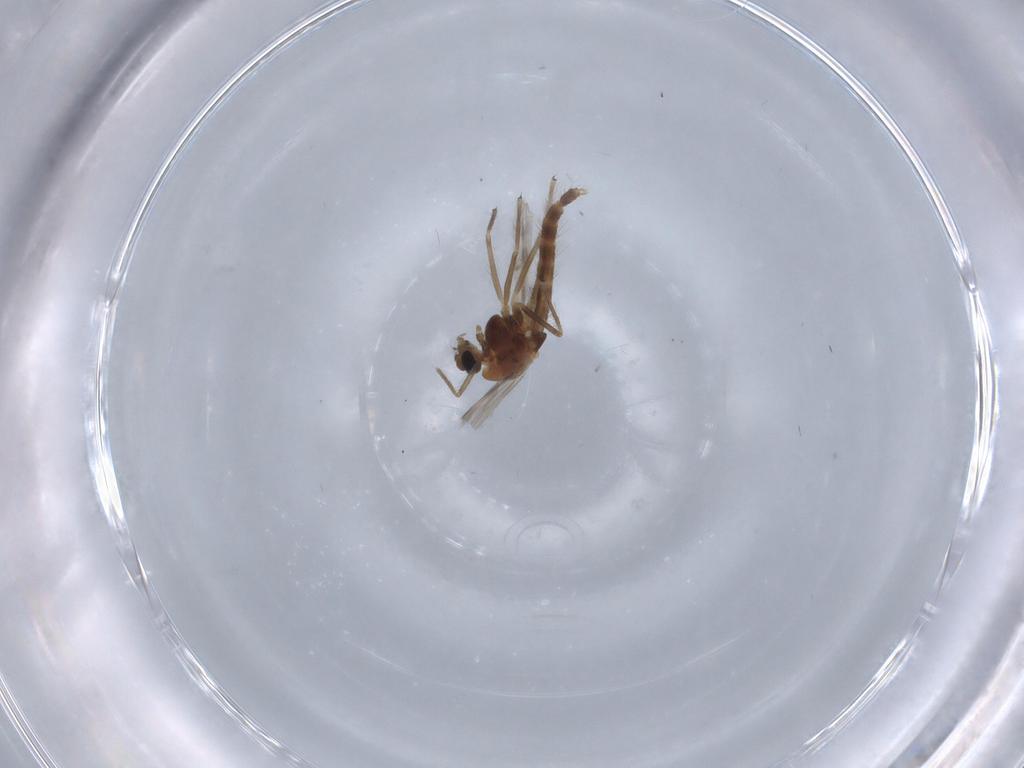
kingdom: Animalia
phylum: Arthropoda
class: Insecta
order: Diptera
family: Chironomidae
